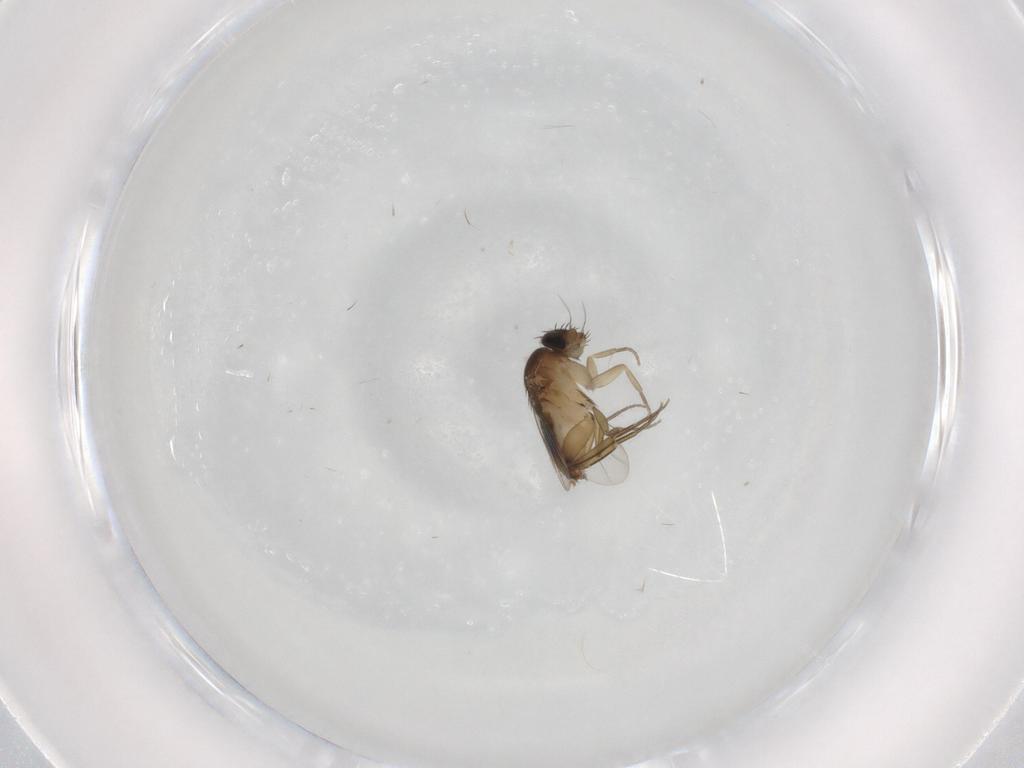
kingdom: Animalia
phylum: Arthropoda
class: Insecta
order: Diptera
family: Phoridae
